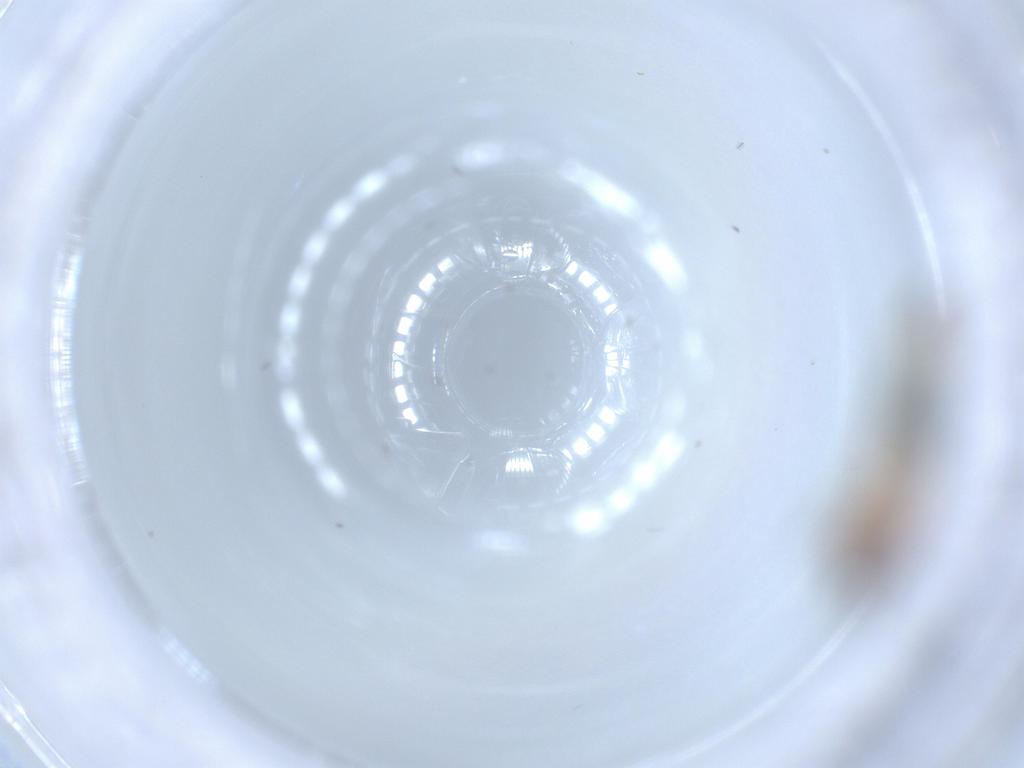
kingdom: Animalia
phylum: Arthropoda
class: Insecta
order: Orthoptera
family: Gryllidae
